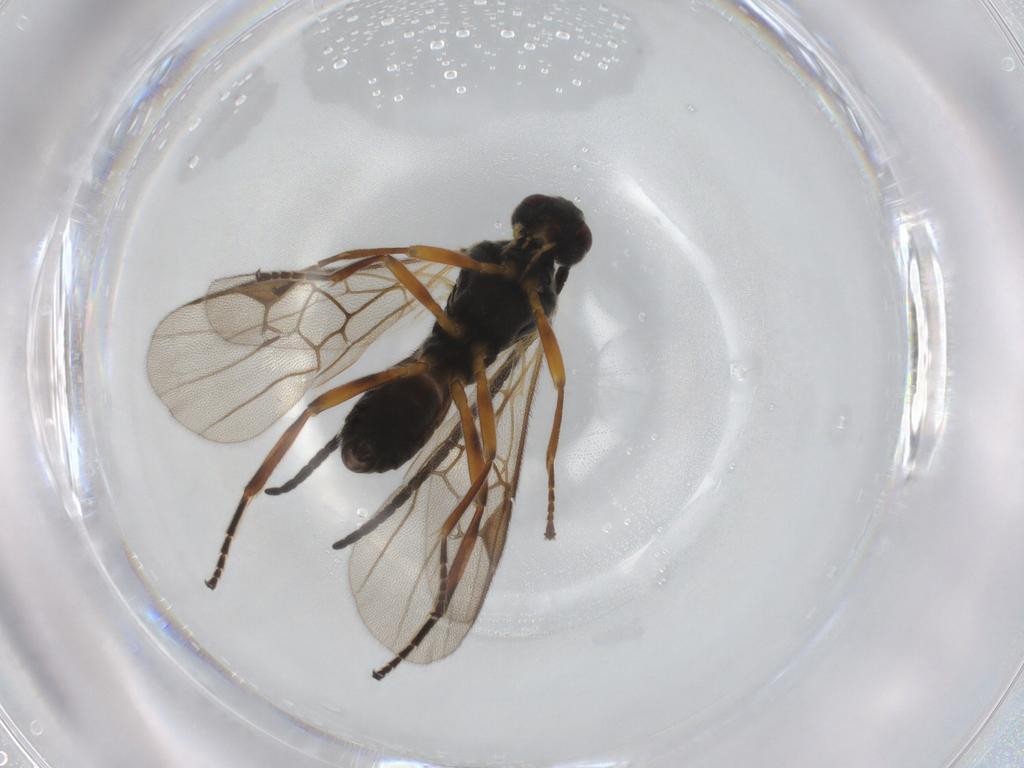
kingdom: Animalia
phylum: Arthropoda
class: Insecta
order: Hymenoptera
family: Braconidae
